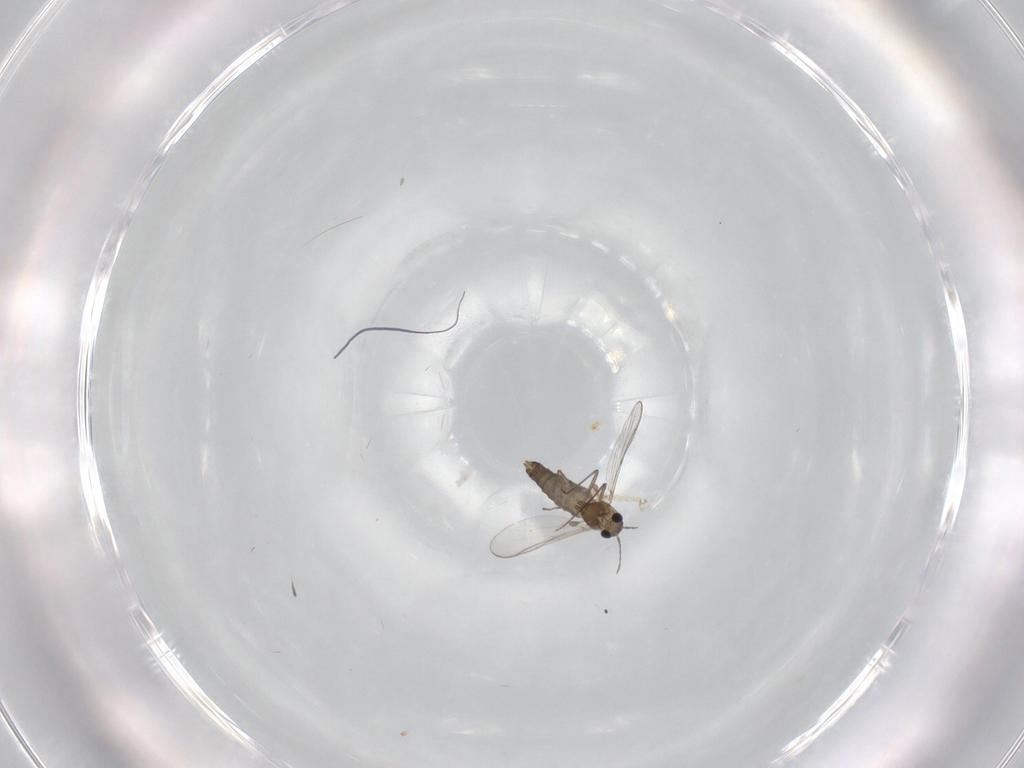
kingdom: Animalia
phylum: Arthropoda
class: Insecta
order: Diptera
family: Chironomidae
